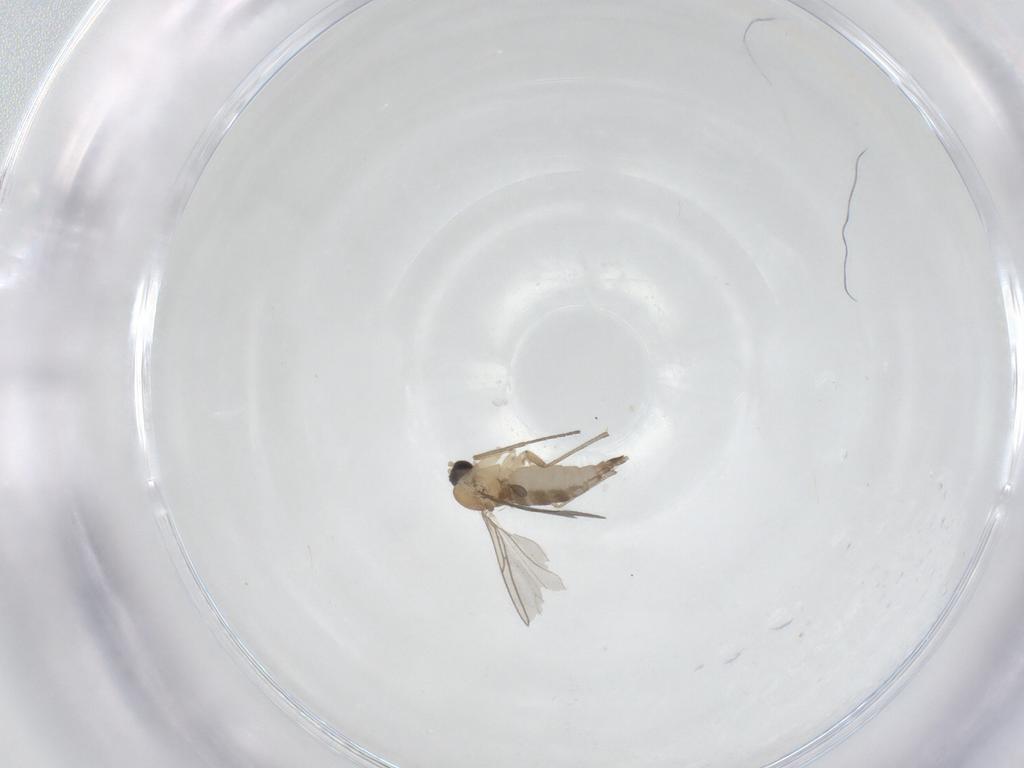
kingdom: Animalia
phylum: Arthropoda
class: Insecta
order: Diptera
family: Sciaridae
